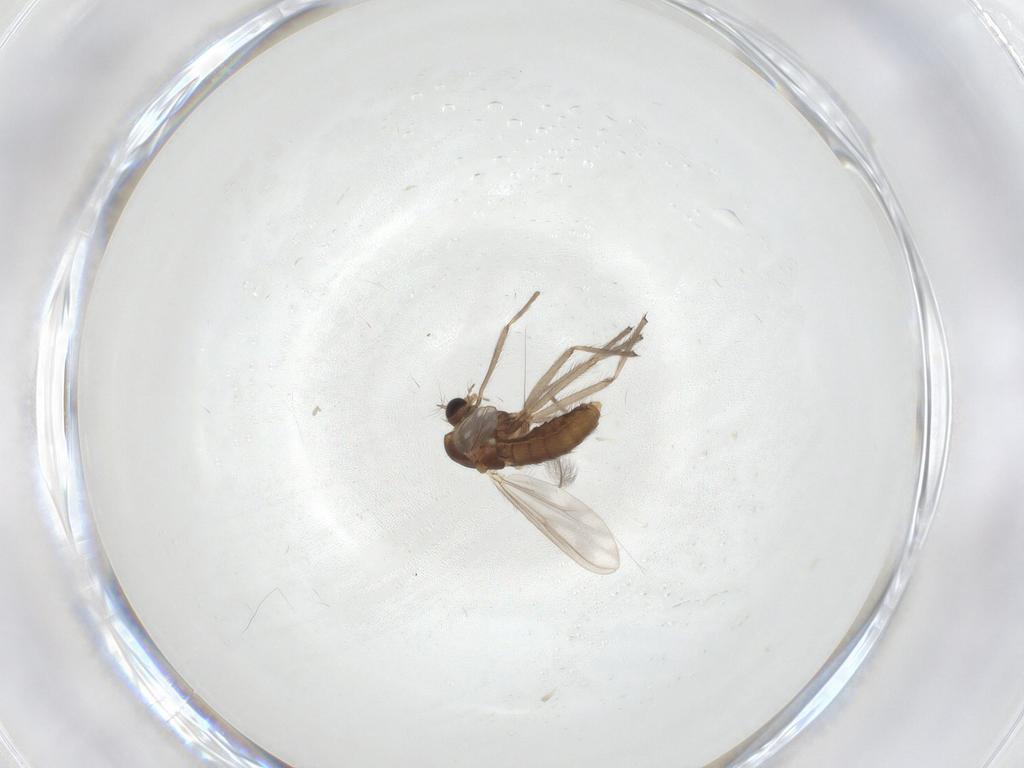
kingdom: Animalia
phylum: Arthropoda
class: Insecta
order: Diptera
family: Chironomidae
